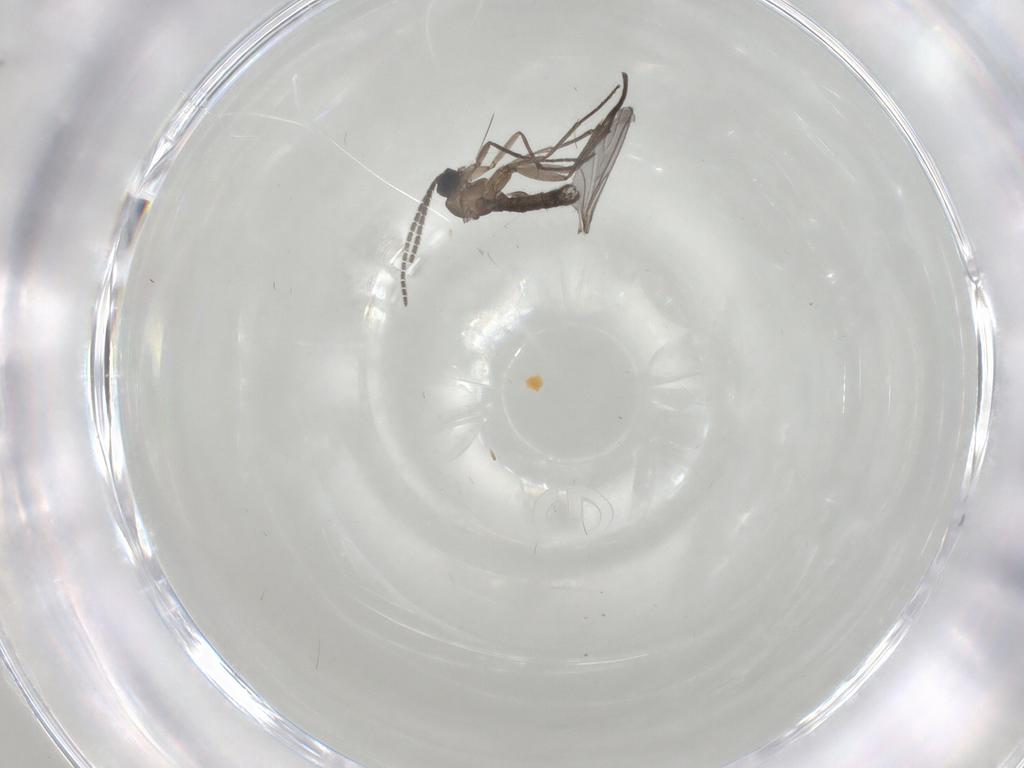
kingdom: Animalia
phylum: Arthropoda
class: Insecta
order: Diptera
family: Sciaridae
